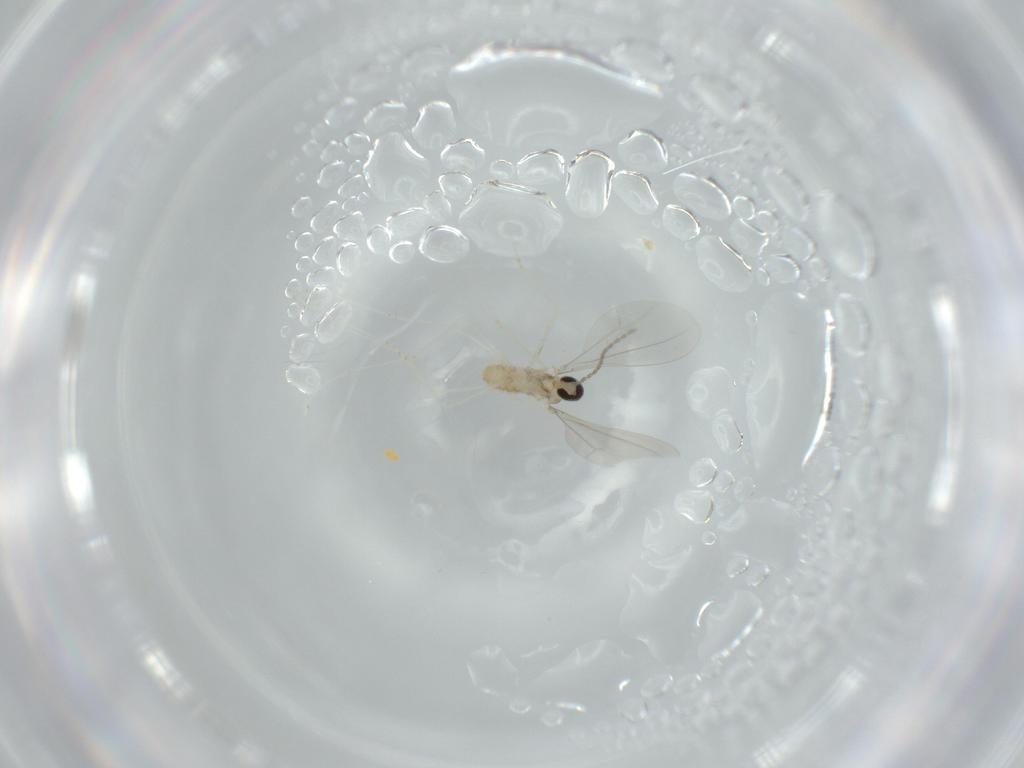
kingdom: Animalia
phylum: Arthropoda
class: Insecta
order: Diptera
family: Cecidomyiidae
